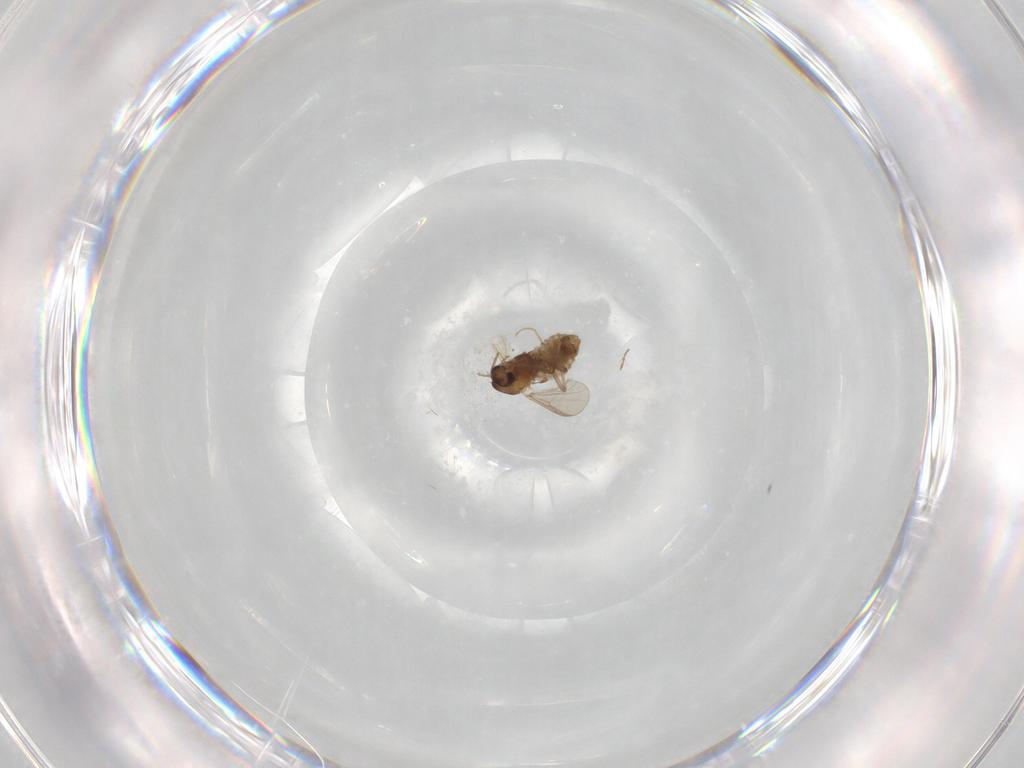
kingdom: Animalia
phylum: Arthropoda
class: Insecta
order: Diptera
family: Chironomidae
